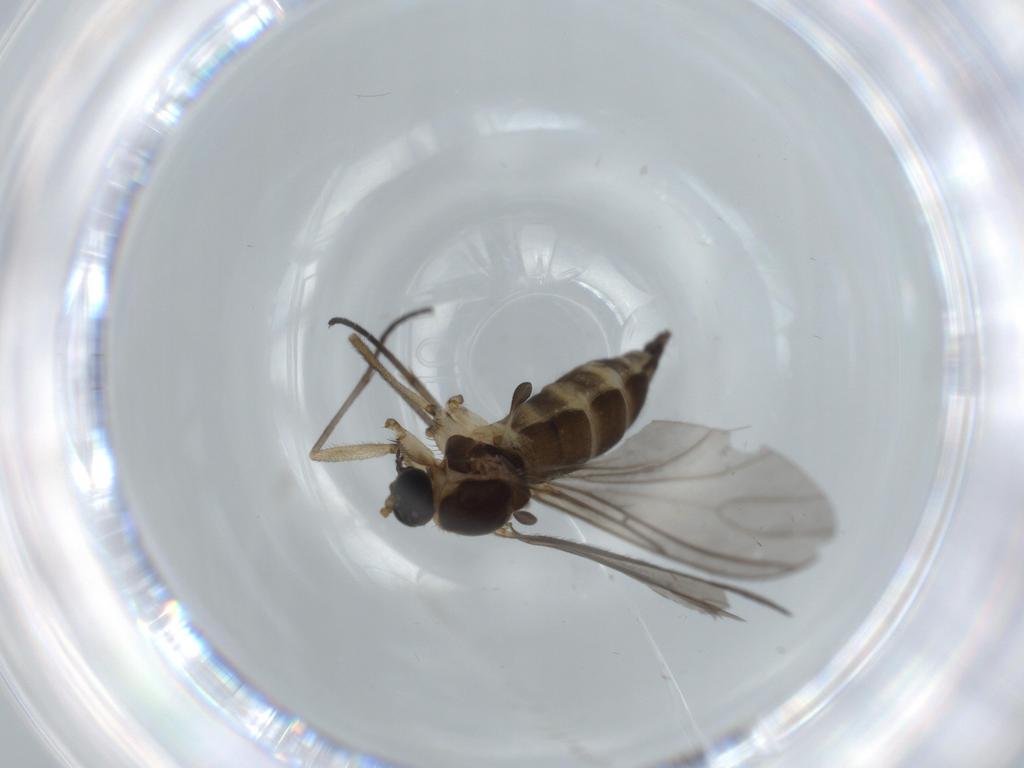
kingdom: Animalia
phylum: Arthropoda
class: Insecta
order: Diptera
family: Sciaridae
